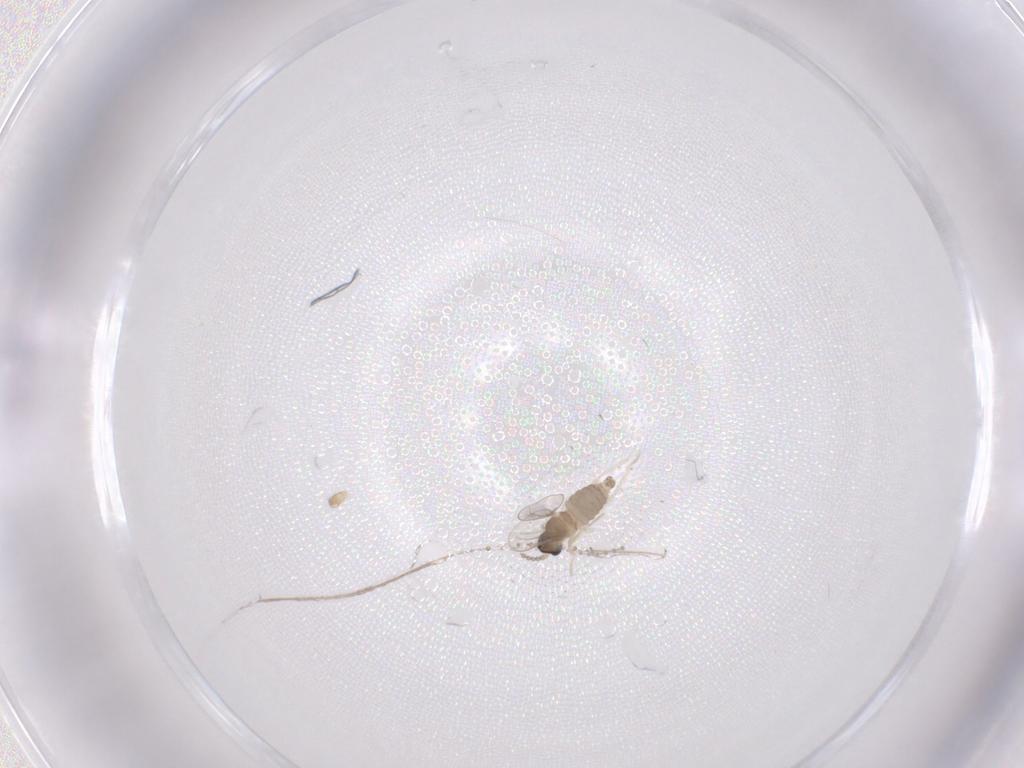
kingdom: Animalia
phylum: Arthropoda
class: Insecta
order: Diptera
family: Cecidomyiidae
